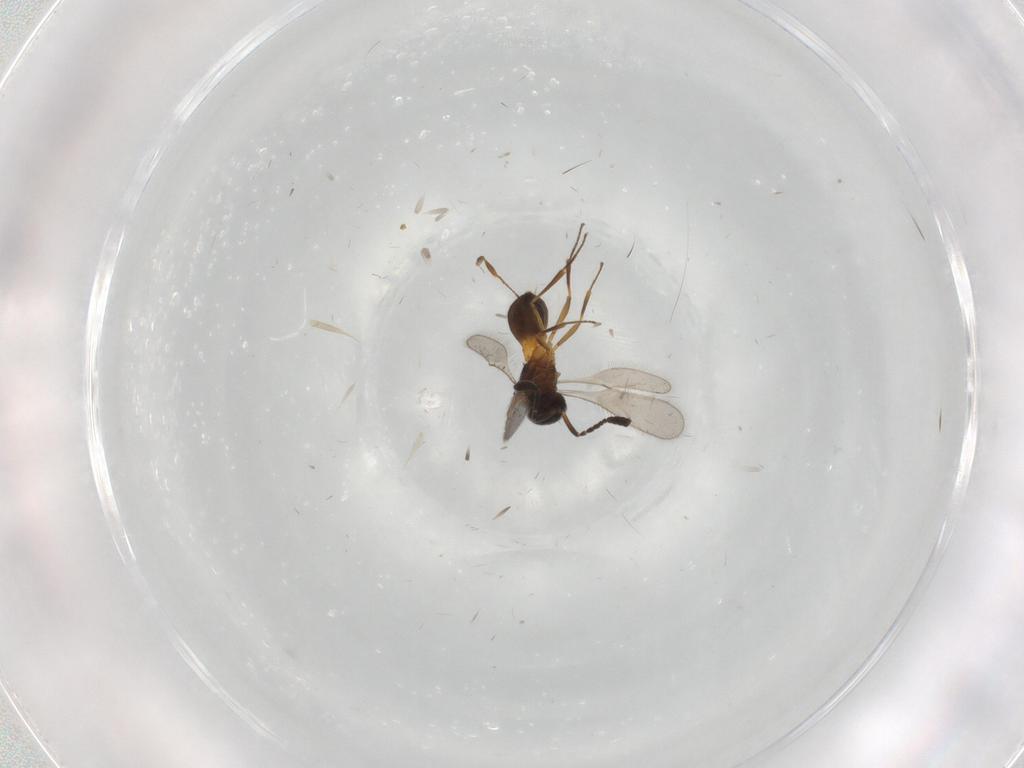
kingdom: Animalia
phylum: Arthropoda
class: Insecta
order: Hymenoptera
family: Scelionidae
